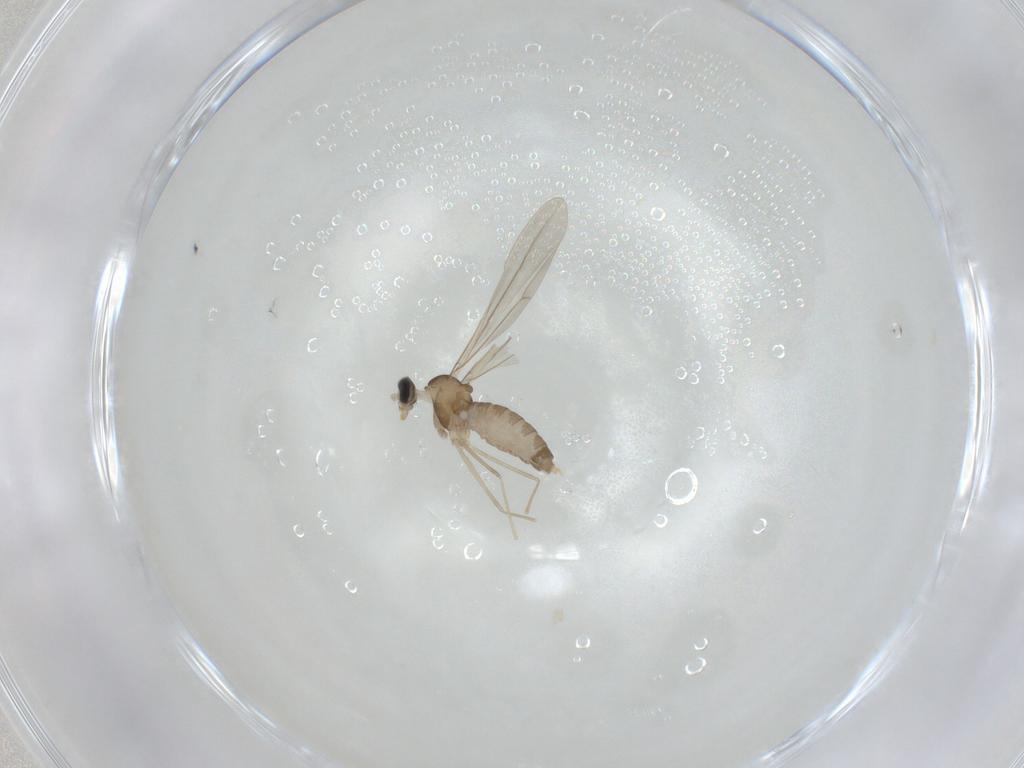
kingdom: Animalia
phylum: Arthropoda
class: Insecta
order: Diptera
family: Cecidomyiidae
